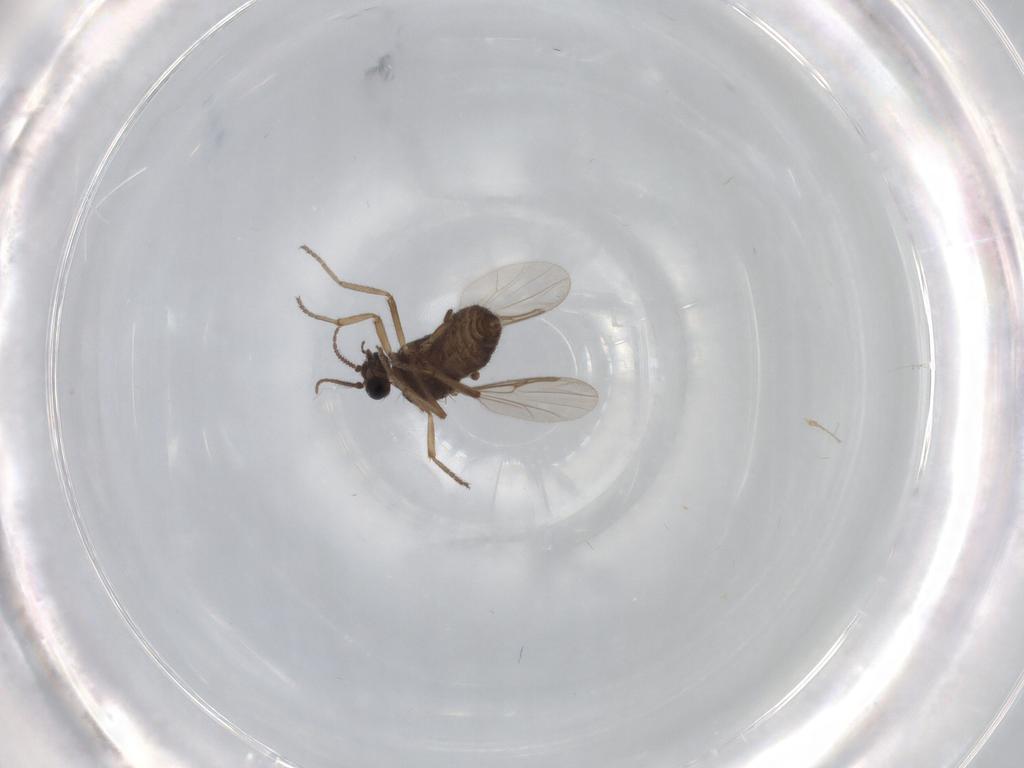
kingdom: Animalia
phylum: Arthropoda
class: Insecta
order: Diptera
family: Ceratopogonidae
